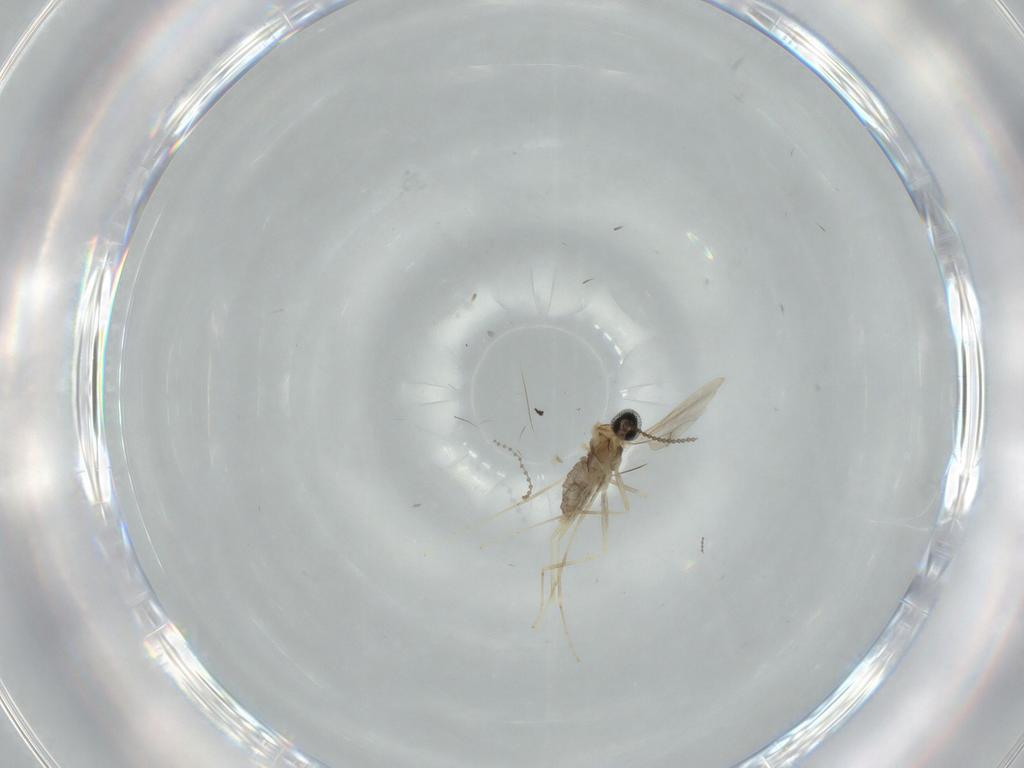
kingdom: Animalia
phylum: Arthropoda
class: Insecta
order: Diptera
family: Cecidomyiidae
